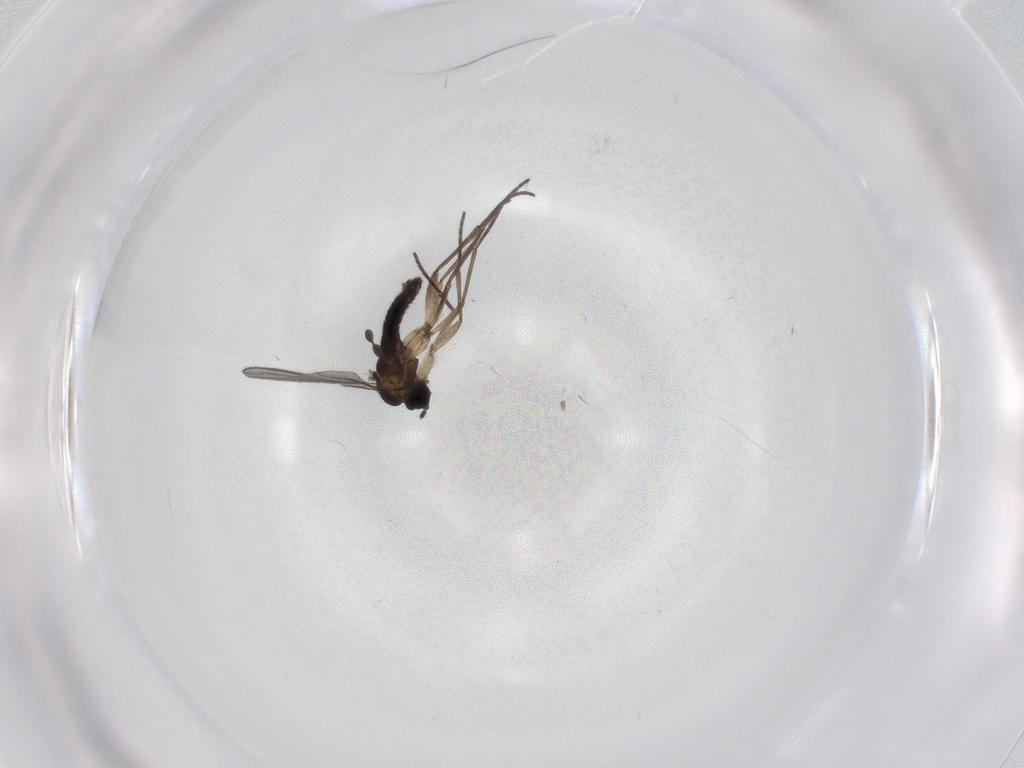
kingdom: Animalia
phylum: Arthropoda
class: Insecta
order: Diptera
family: Sciaridae
